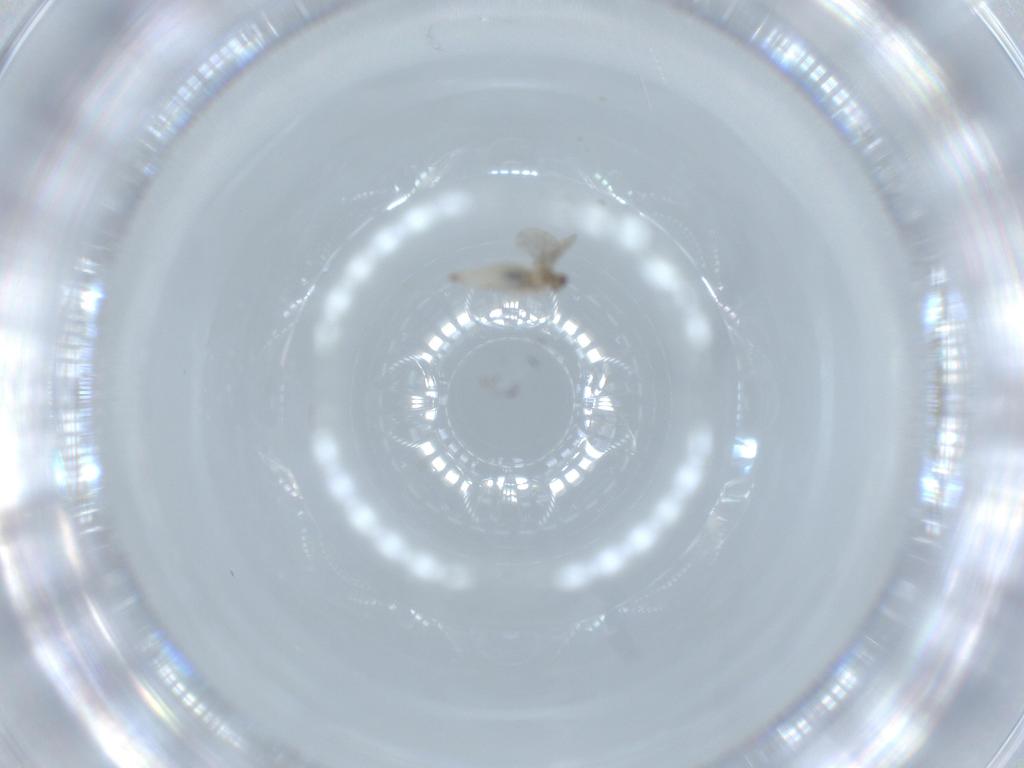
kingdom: Animalia
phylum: Arthropoda
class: Insecta
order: Diptera
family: Cecidomyiidae
